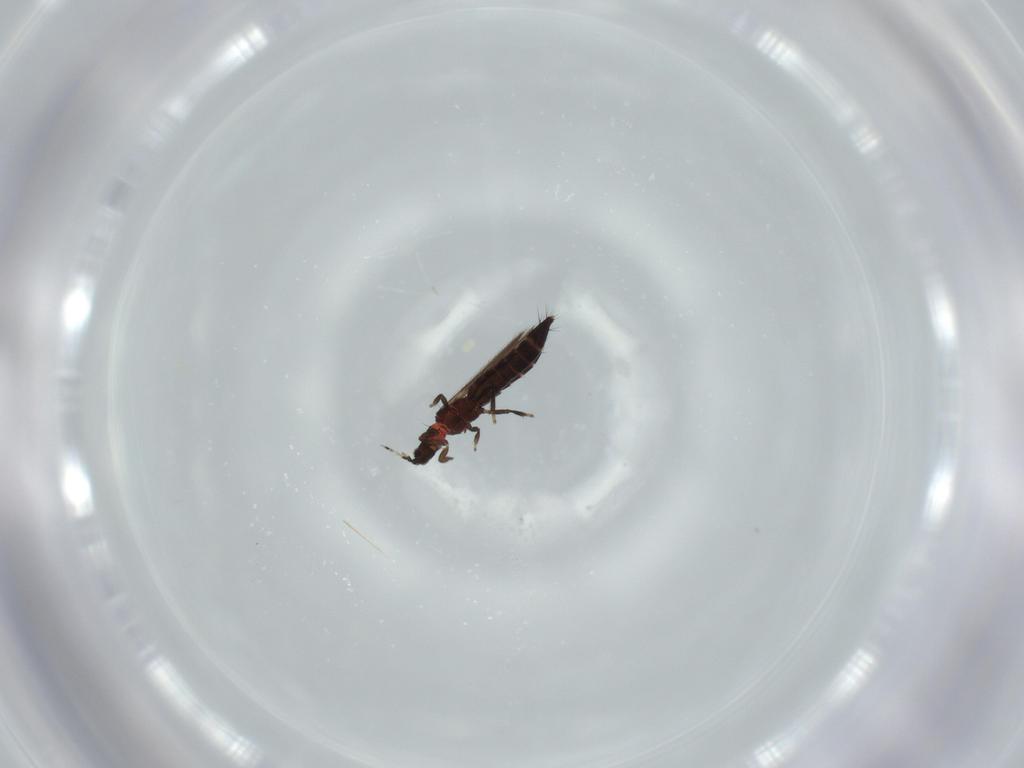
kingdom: Animalia
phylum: Arthropoda
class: Insecta
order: Thysanoptera
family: Thripidae
